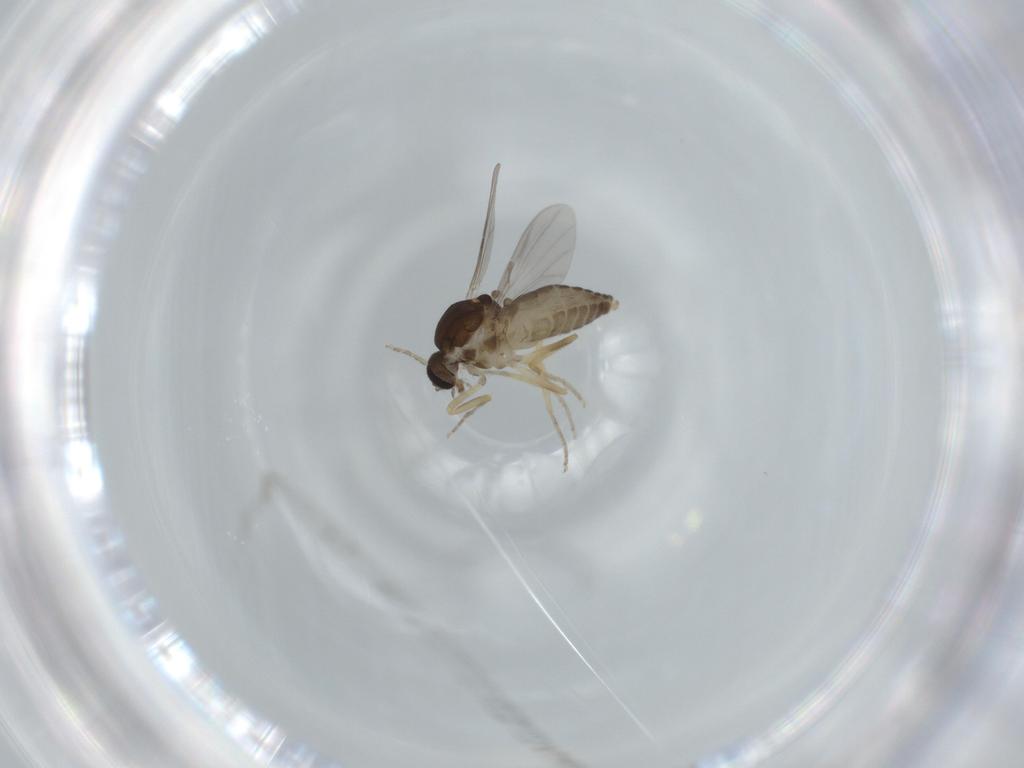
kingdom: Animalia
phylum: Arthropoda
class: Insecta
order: Diptera
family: Ceratopogonidae
